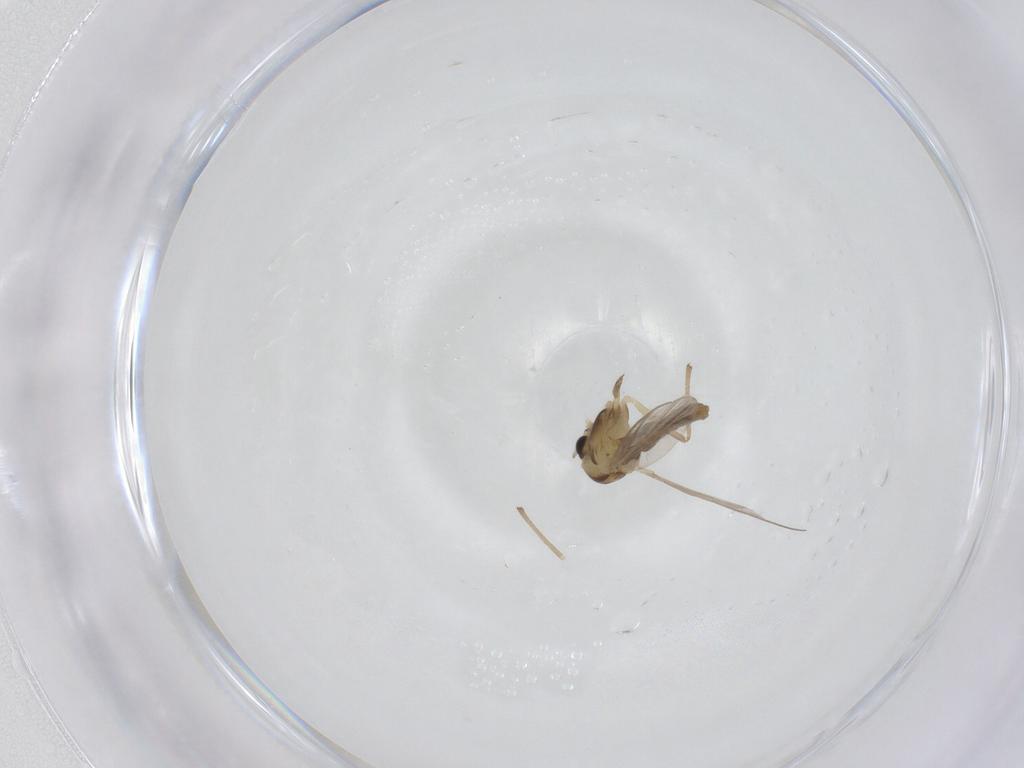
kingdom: Animalia
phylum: Arthropoda
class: Insecta
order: Diptera
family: Chironomidae
